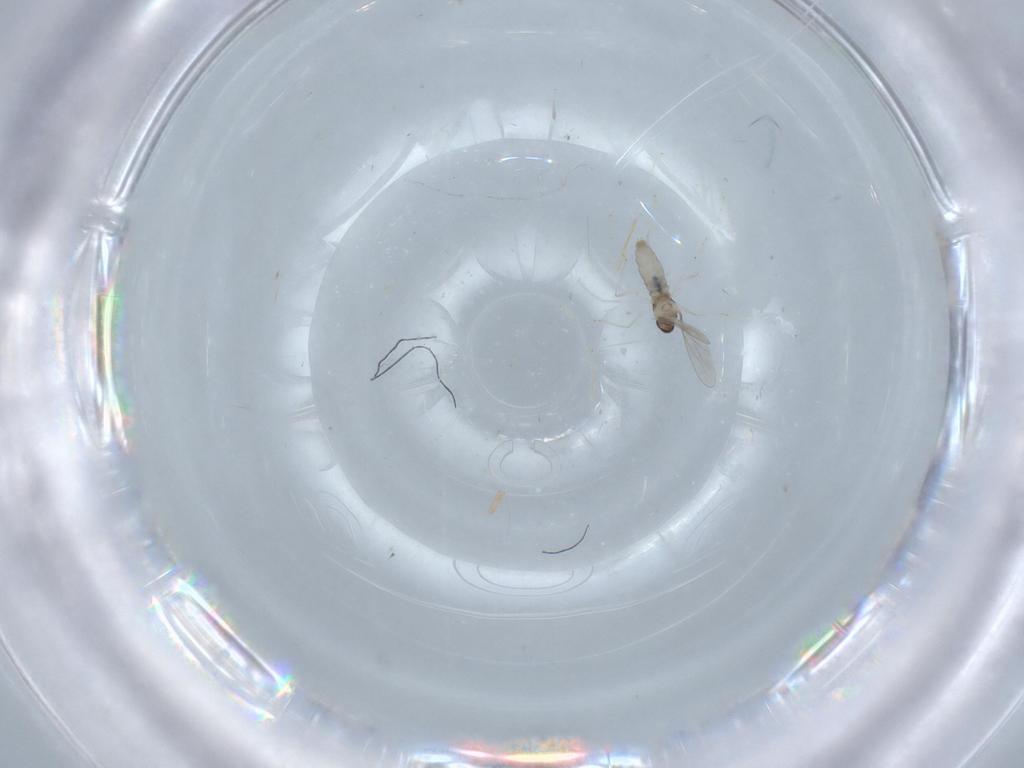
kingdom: Animalia
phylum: Arthropoda
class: Insecta
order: Diptera
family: Cecidomyiidae
